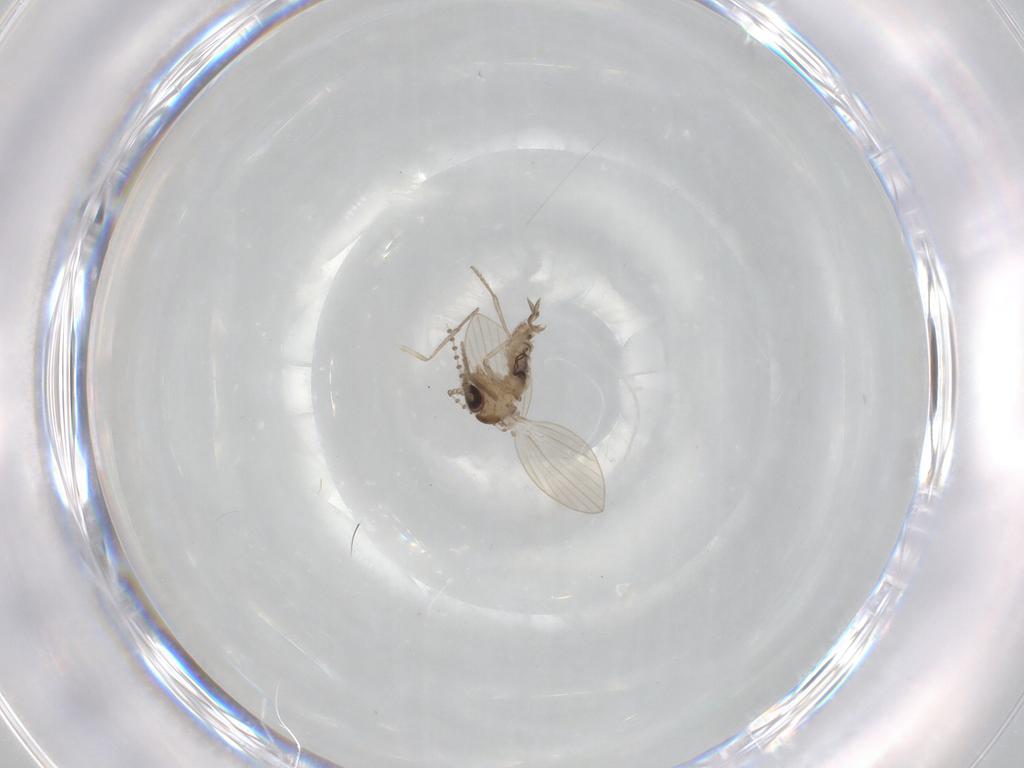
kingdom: Animalia
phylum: Arthropoda
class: Insecta
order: Diptera
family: Psychodidae
